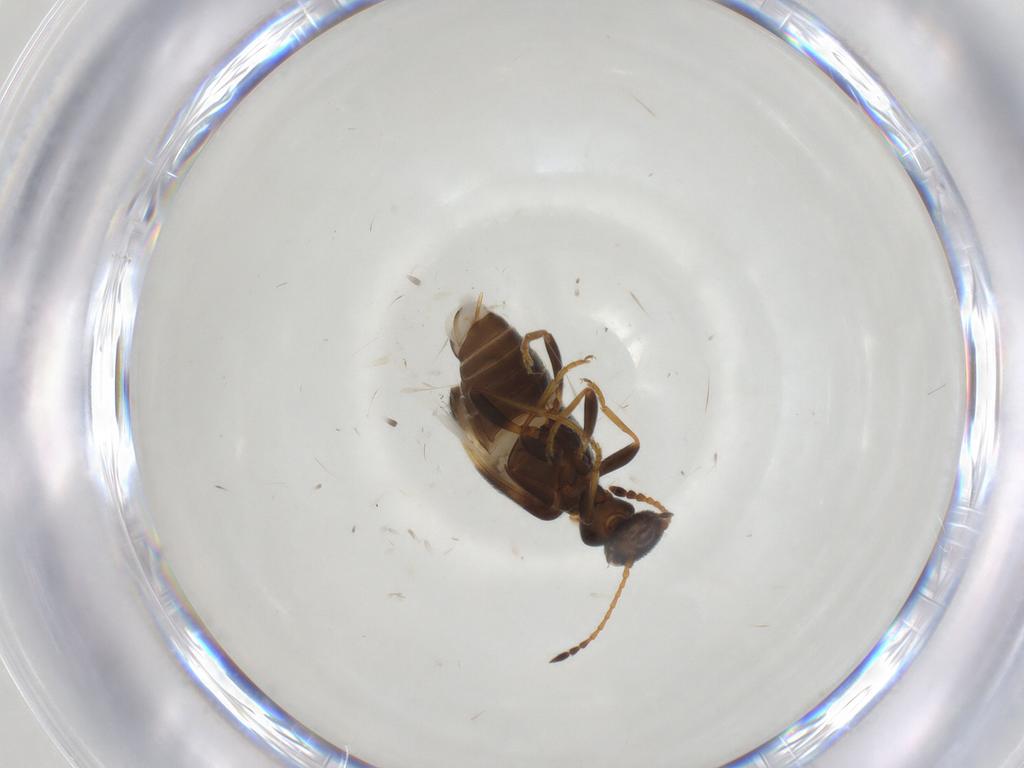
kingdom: Animalia
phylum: Arthropoda
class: Insecta
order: Coleoptera
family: Anthicidae
